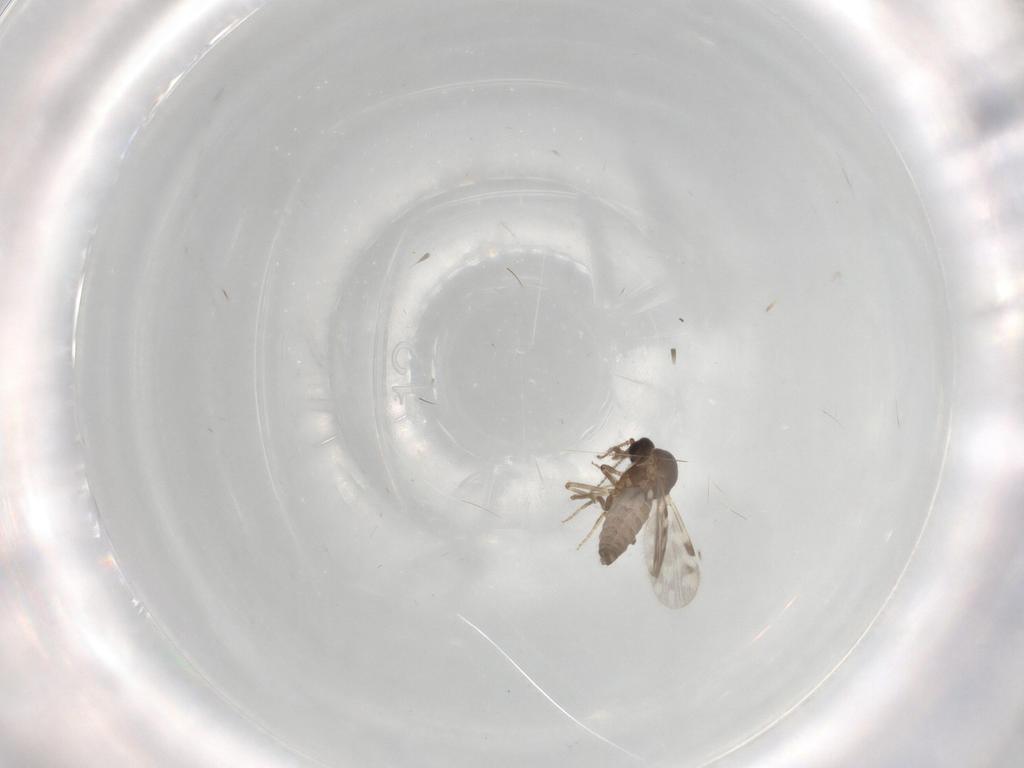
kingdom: Animalia
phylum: Arthropoda
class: Insecta
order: Diptera
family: Ceratopogonidae
